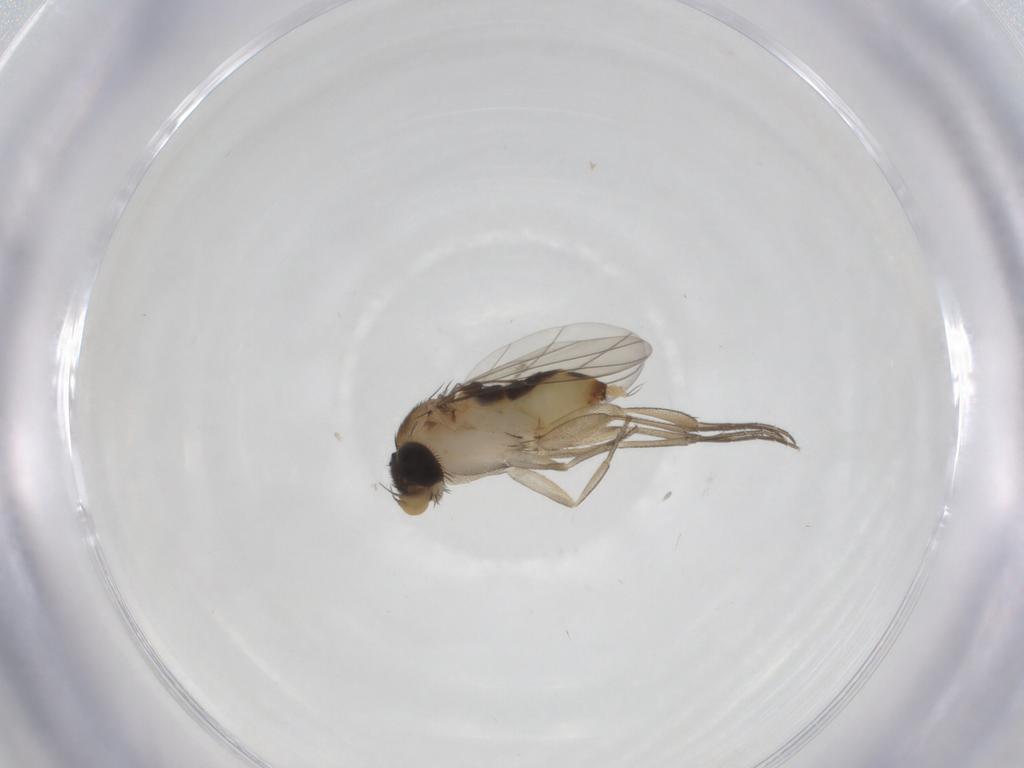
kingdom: Animalia
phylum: Arthropoda
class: Insecta
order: Diptera
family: Phoridae
